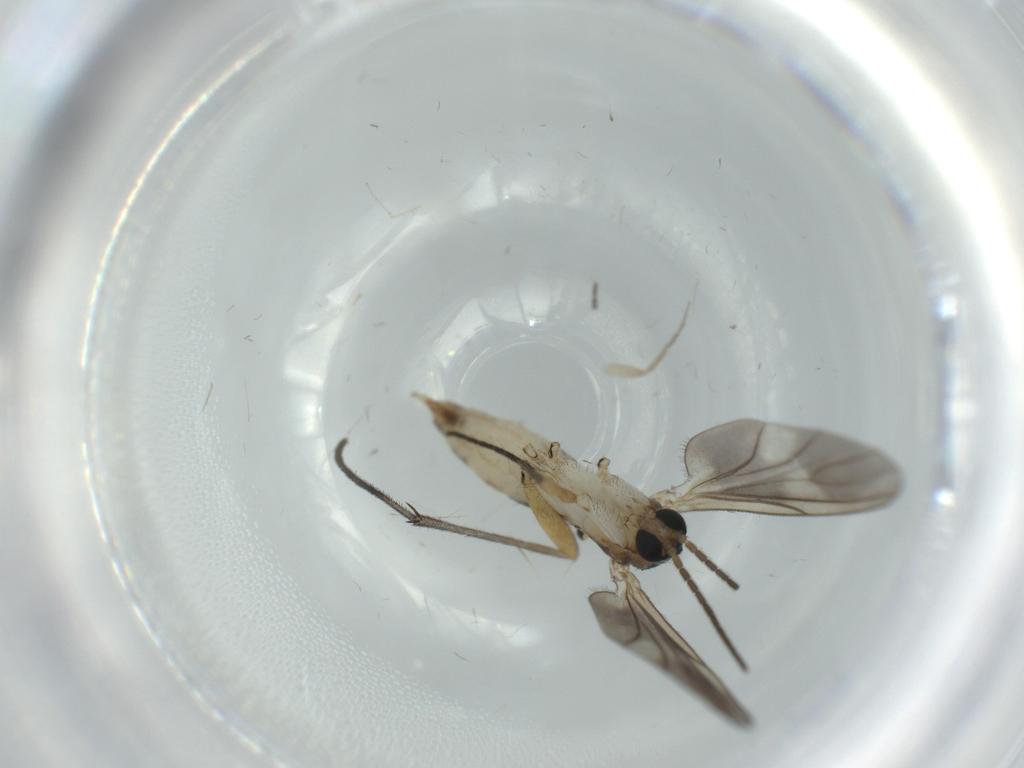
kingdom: Animalia
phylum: Arthropoda
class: Insecta
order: Diptera
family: Sciaridae
